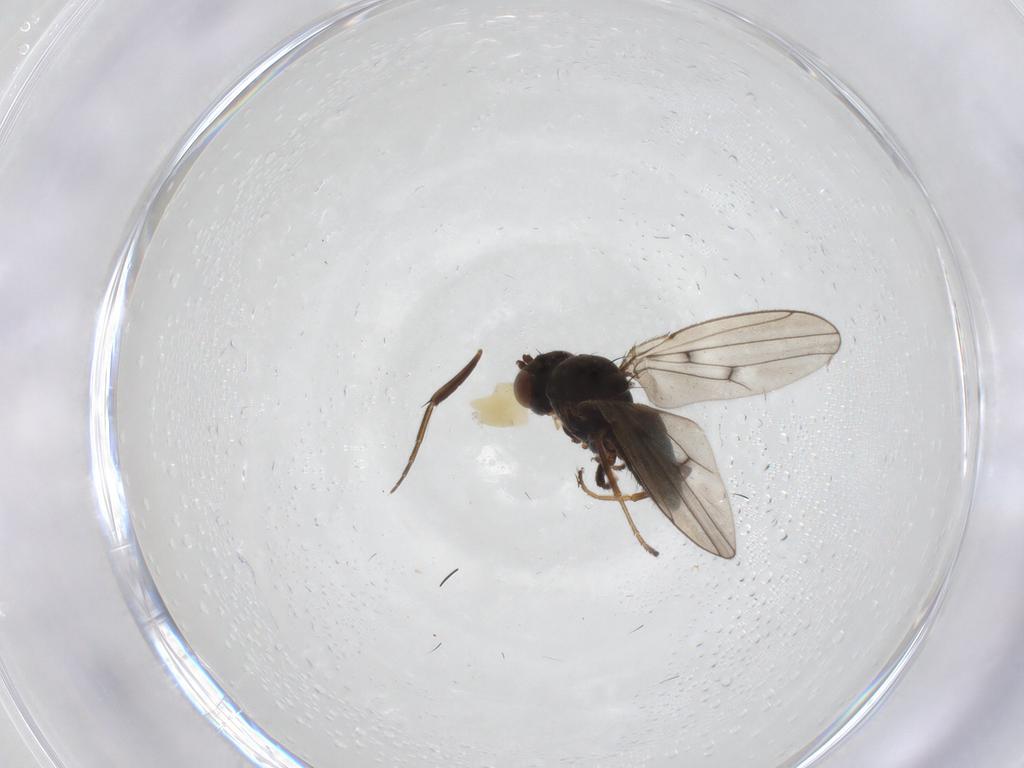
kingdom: Animalia
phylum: Arthropoda
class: Insecta
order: Diptera
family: Ephydridae
